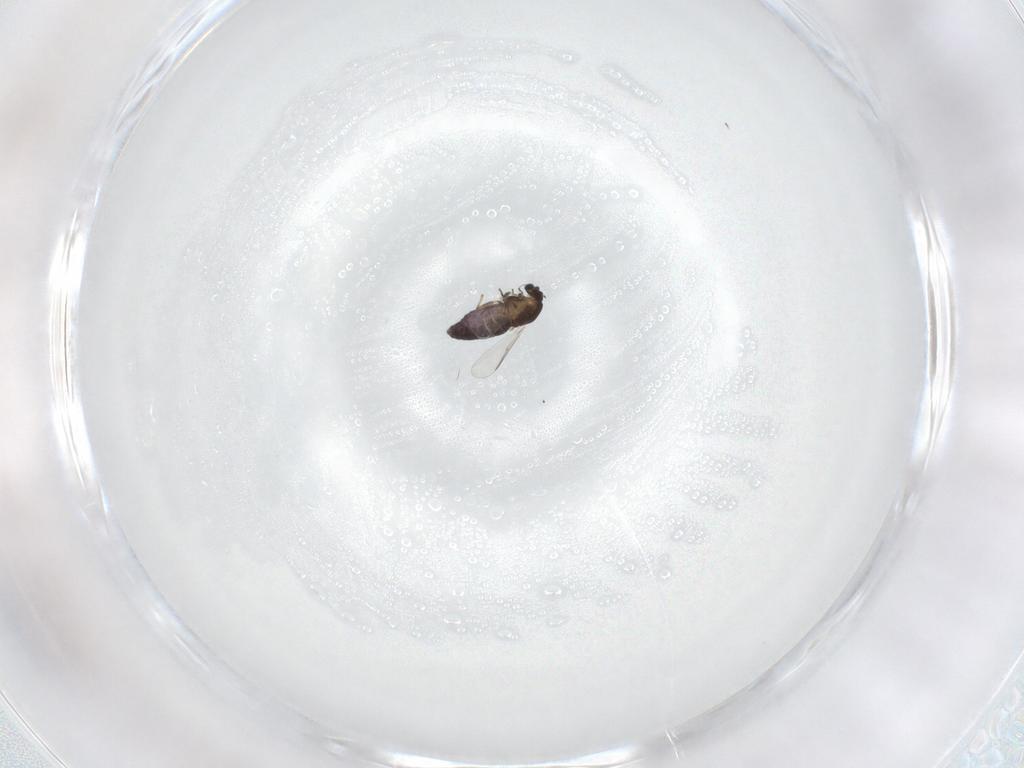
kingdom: Animalia
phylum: Arthropoda
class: Insecta
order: Diptera
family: Chironomidae
